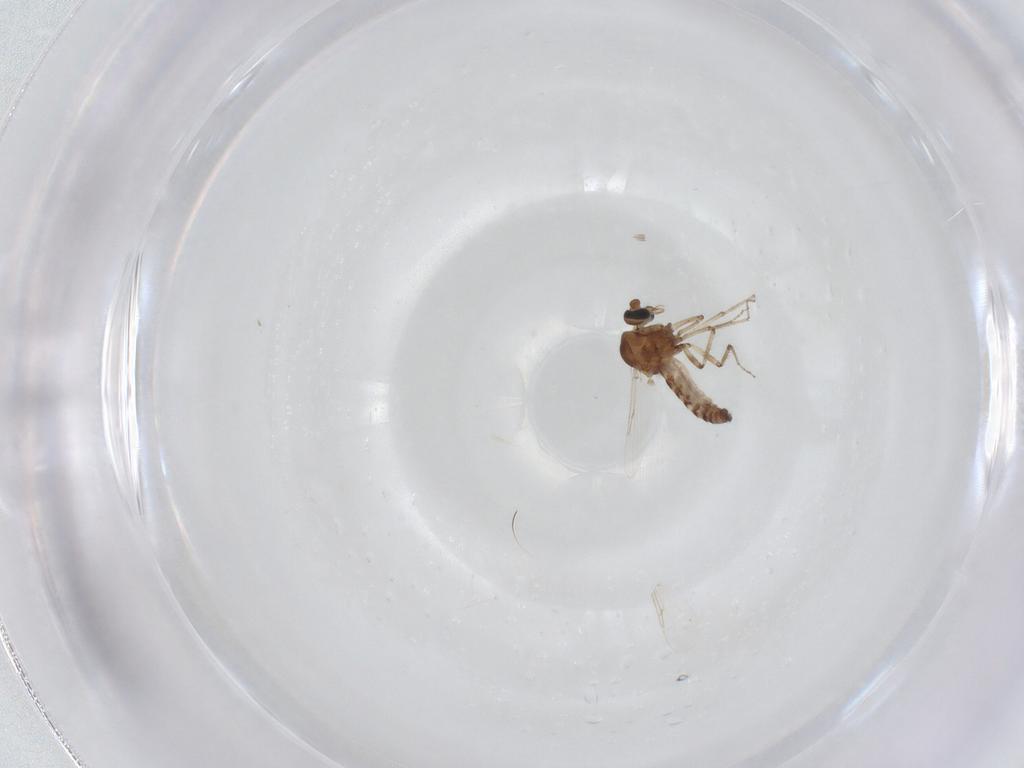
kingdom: Animalia
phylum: Arthropoda
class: Insecta
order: Diptera
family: Ceratopogonidae
